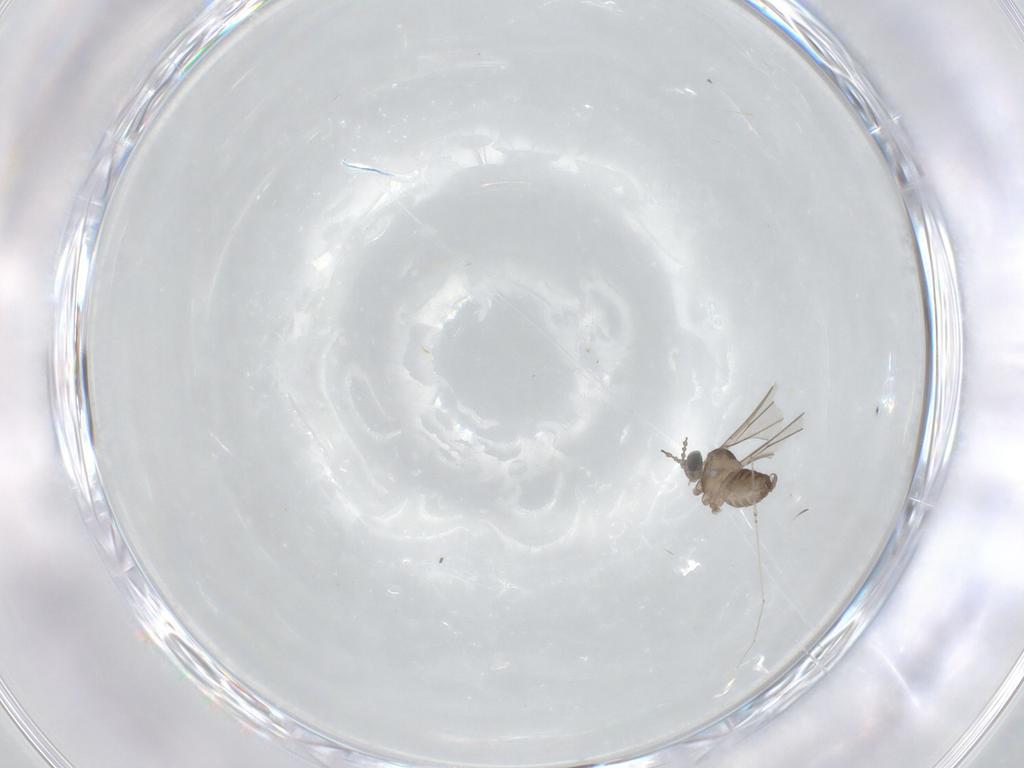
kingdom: Animalia
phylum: Arthropoda
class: Insecta
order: Diptera
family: Cecidomyiidae
